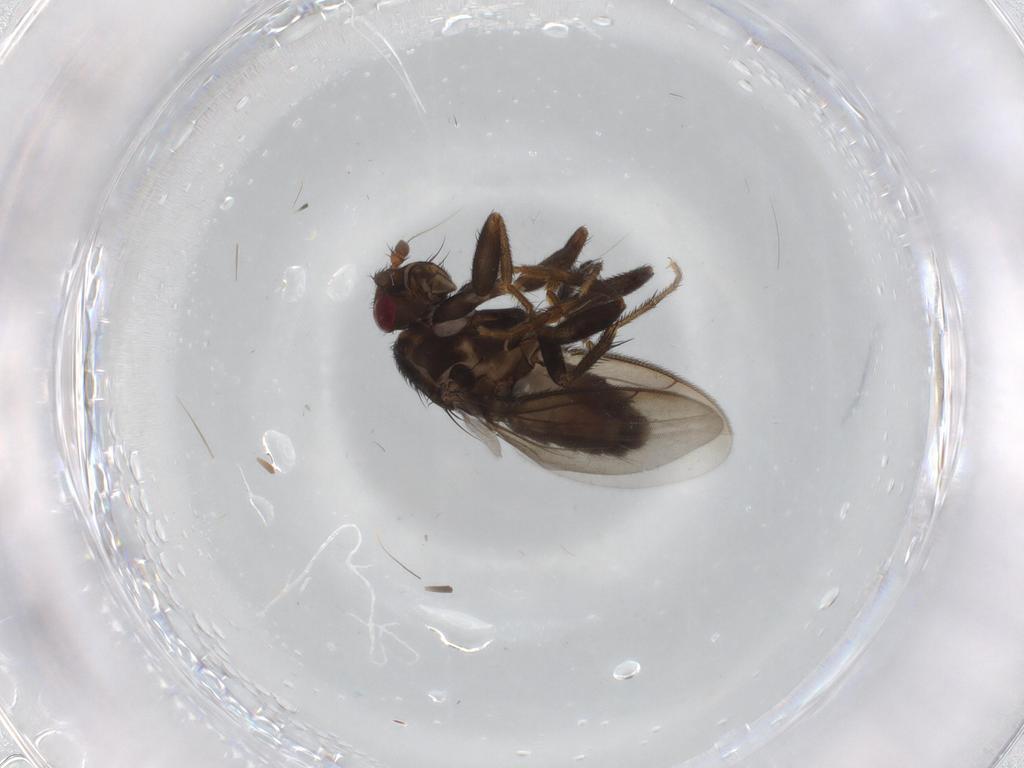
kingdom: Animalia
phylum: Arthropoda
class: Insecta
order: Diptera
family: Sphaeroceridae
